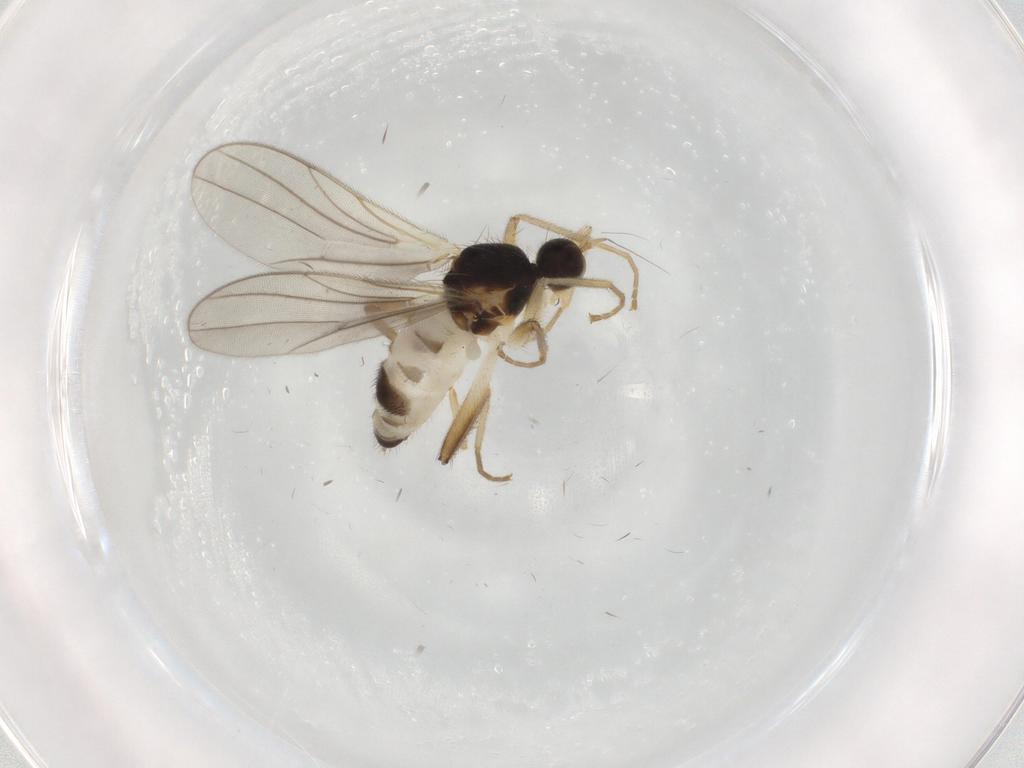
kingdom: Animalia
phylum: Arthropoda
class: Insecta
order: Diptera
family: Hybotidae
